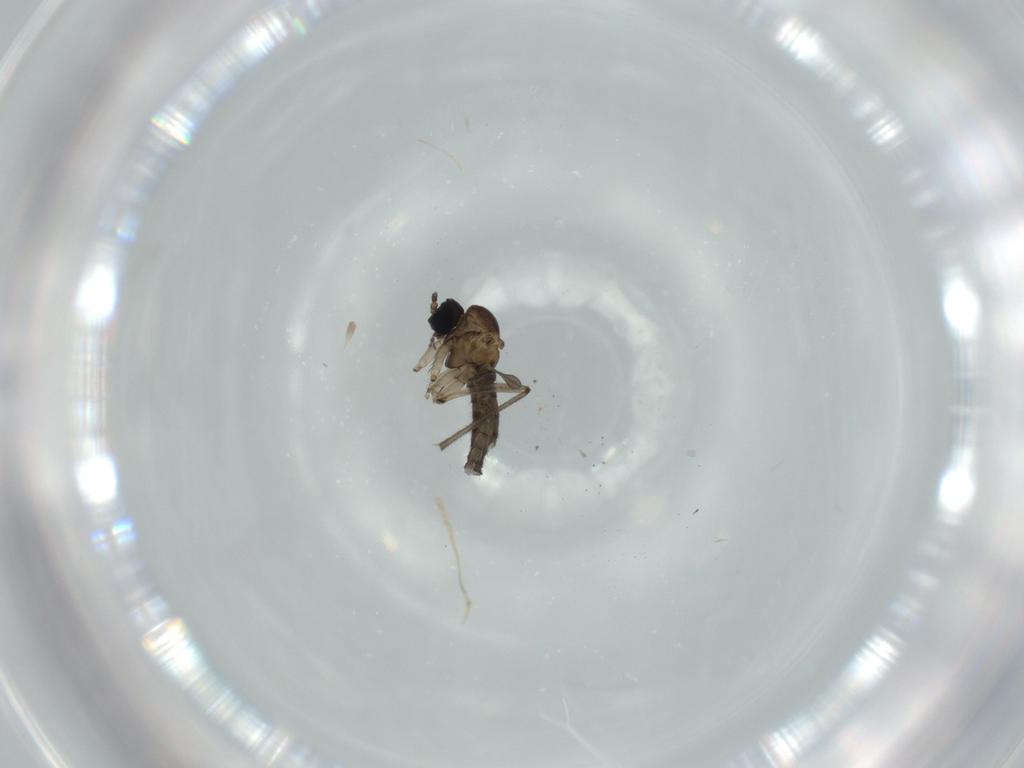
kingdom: Animalia
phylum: Arthropoda
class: Insecta
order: Diptera
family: Sciaridae
